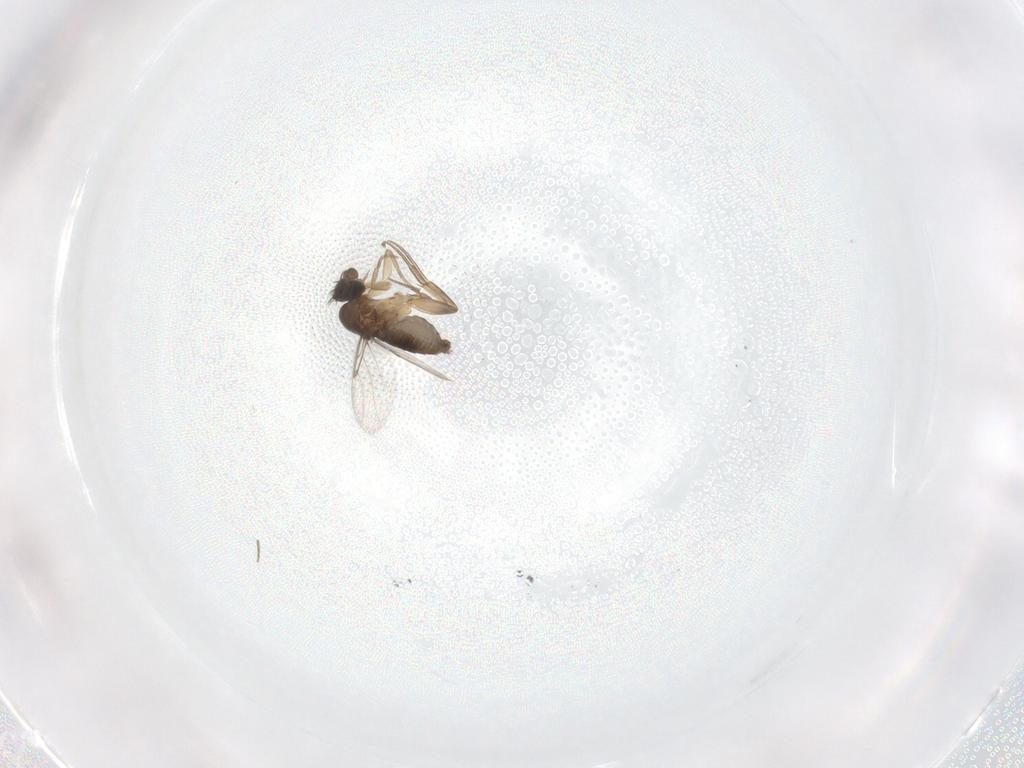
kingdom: Animalia
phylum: Arthropoda
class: Insecta
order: Diptera
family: Phoridae
